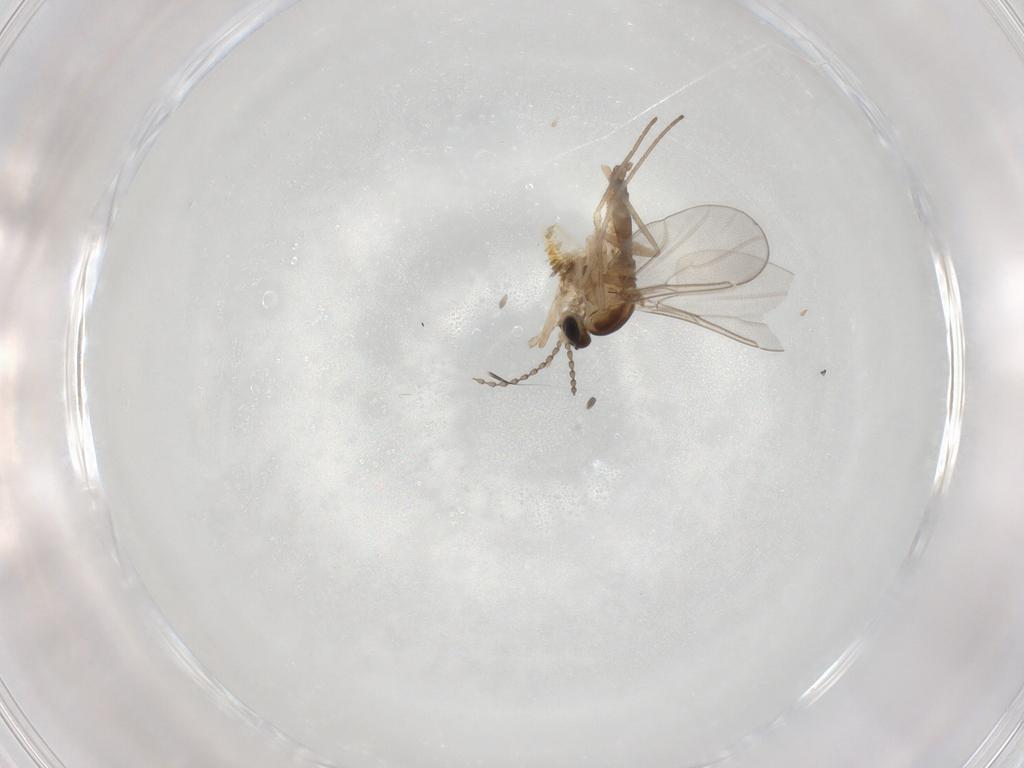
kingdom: Animalia
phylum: Arthropoda
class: Insecta
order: Diptera
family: Cecidomyiidae
